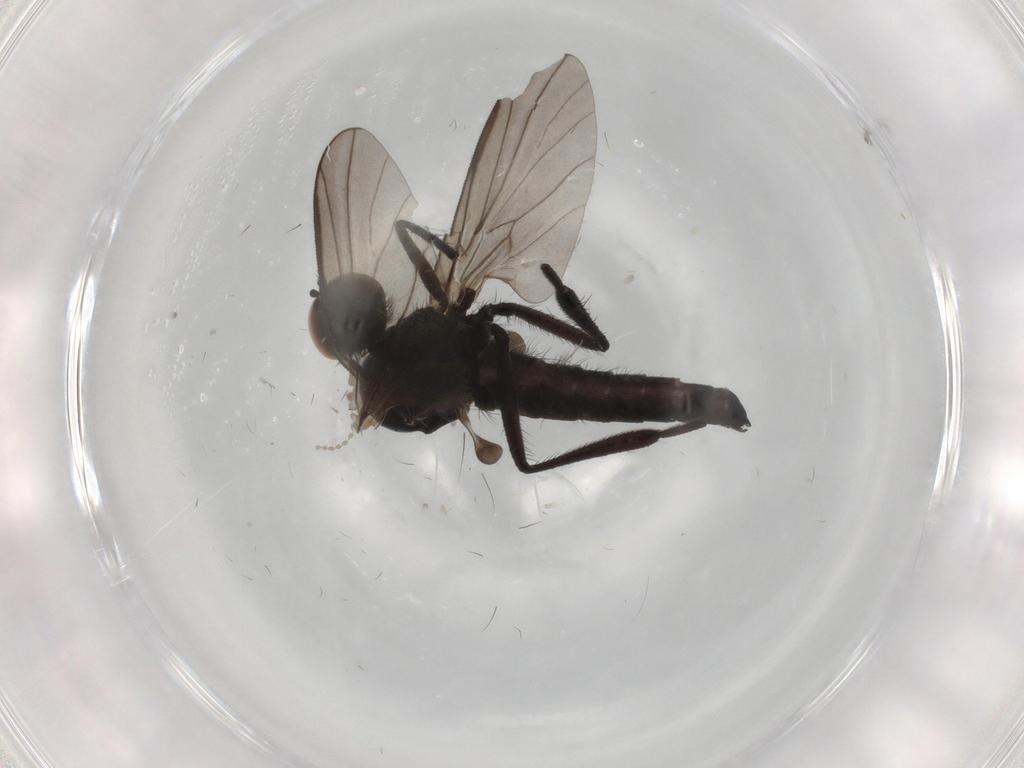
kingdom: Animalia
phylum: Arthropoda
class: Insecta
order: Diptera
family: Hybotidae
